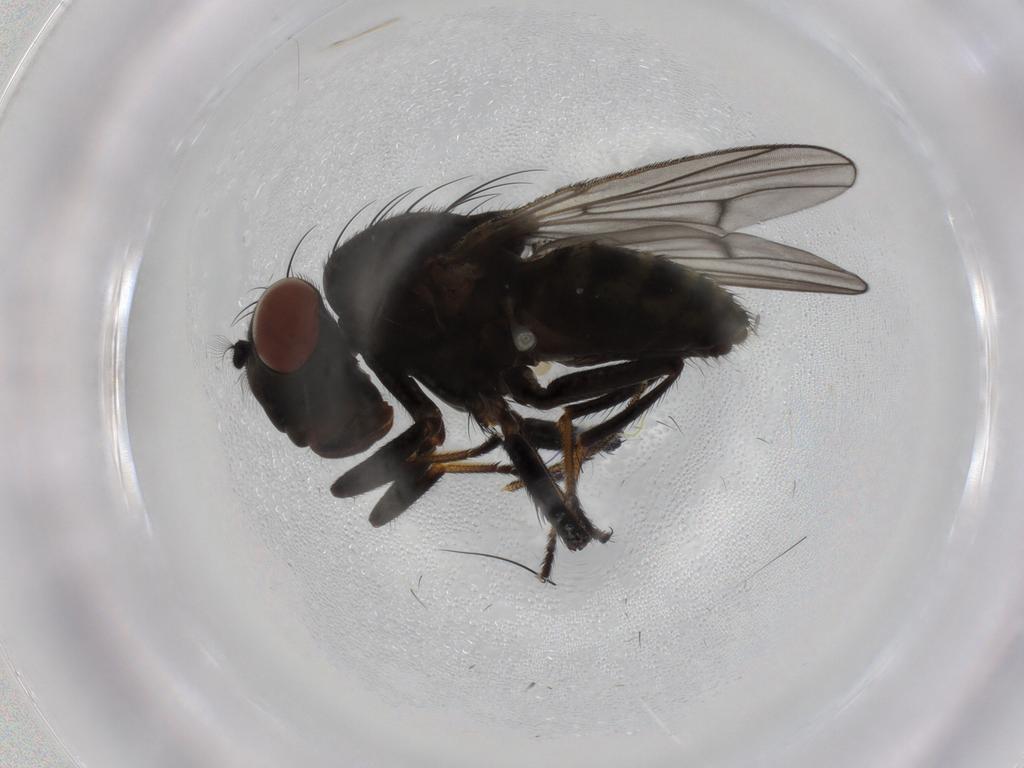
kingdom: Animalia
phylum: Arthropoda
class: Insecta
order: Diptera
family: Ephydridae
